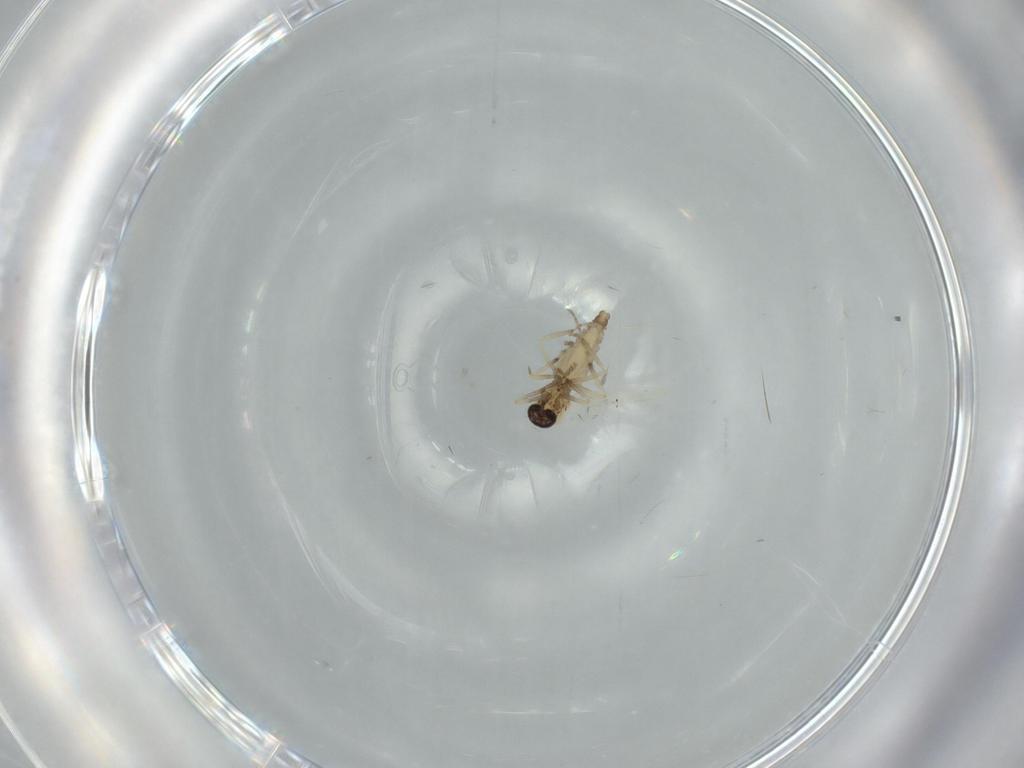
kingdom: Animalia
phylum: Arthropoda
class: Insecta
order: Diptera
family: Ceratopogonidae
